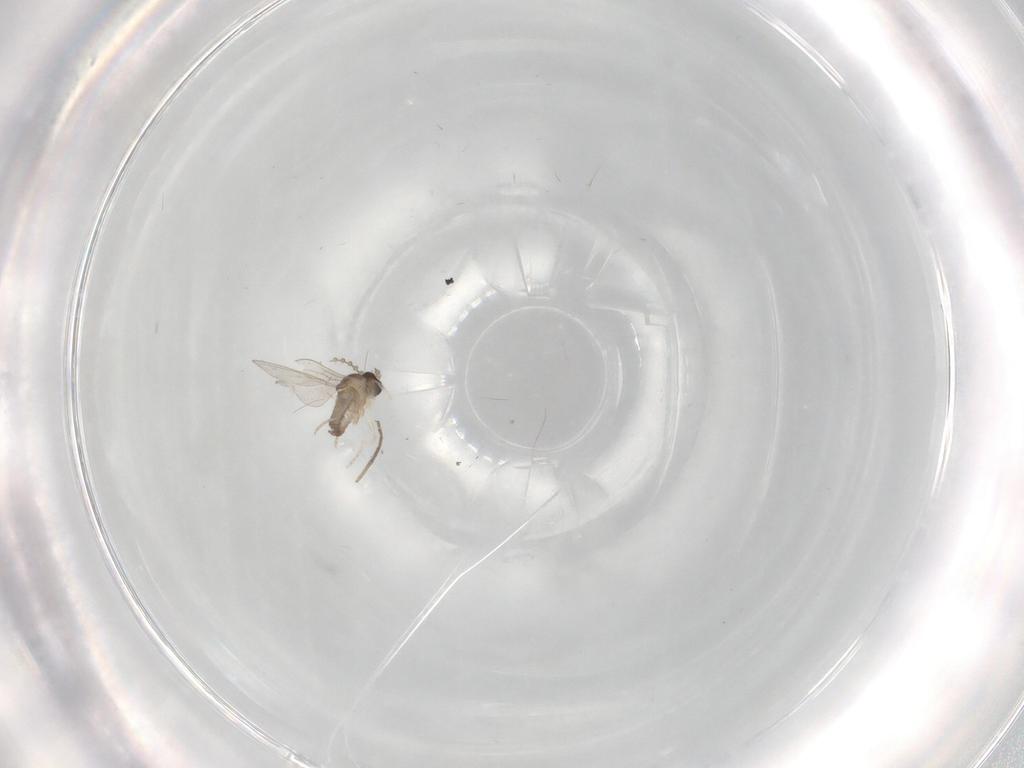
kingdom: Animalia
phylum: Arthropoda
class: Insecta
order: Diptera
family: Cecidomyiidae
